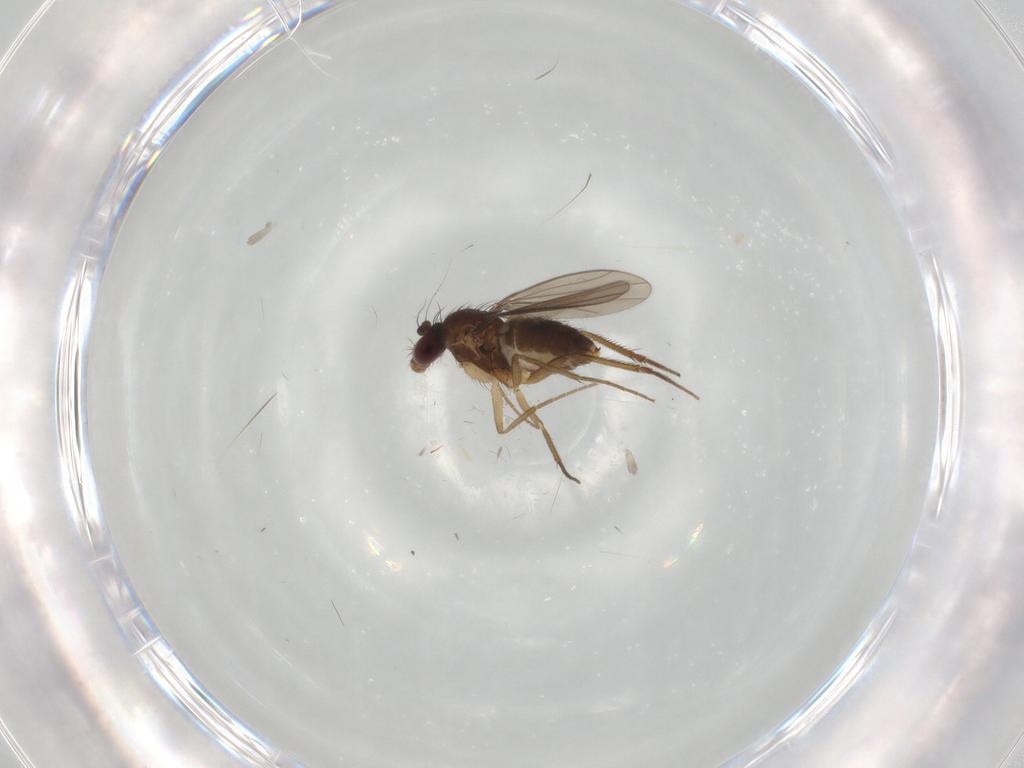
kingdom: Animalia
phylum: Arthropoda
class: Insecta
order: Diptera
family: Dolichopodidae
